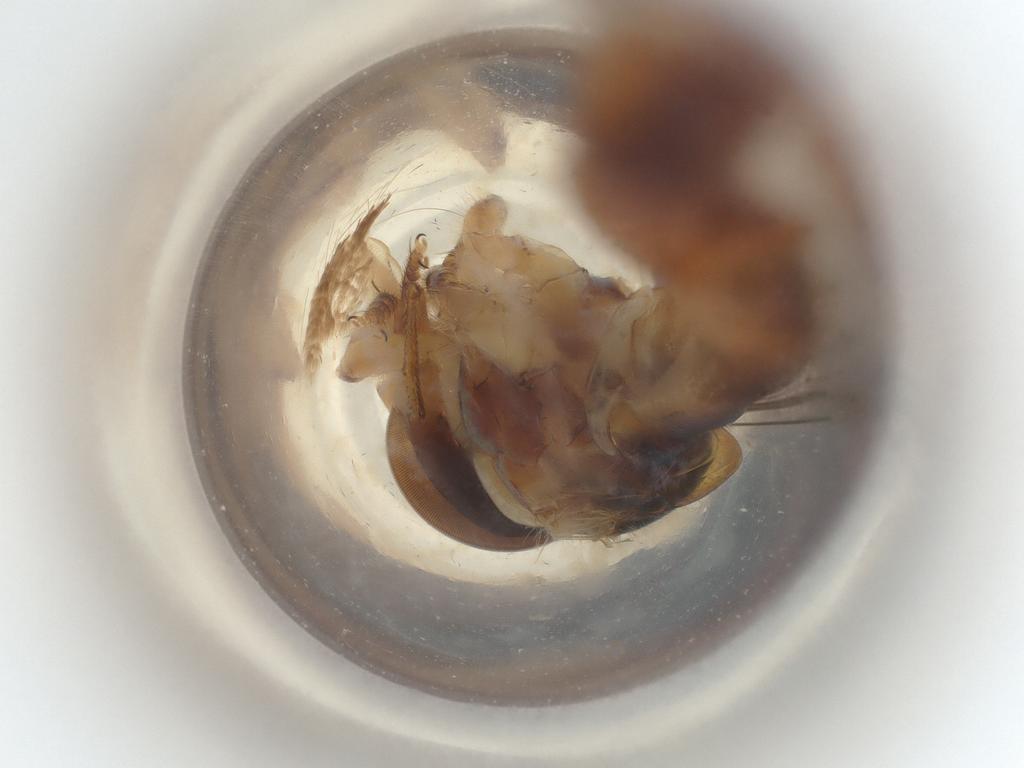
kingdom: Animalia
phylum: Arthropoda
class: Insecta
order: Diptera
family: Syrphidae
